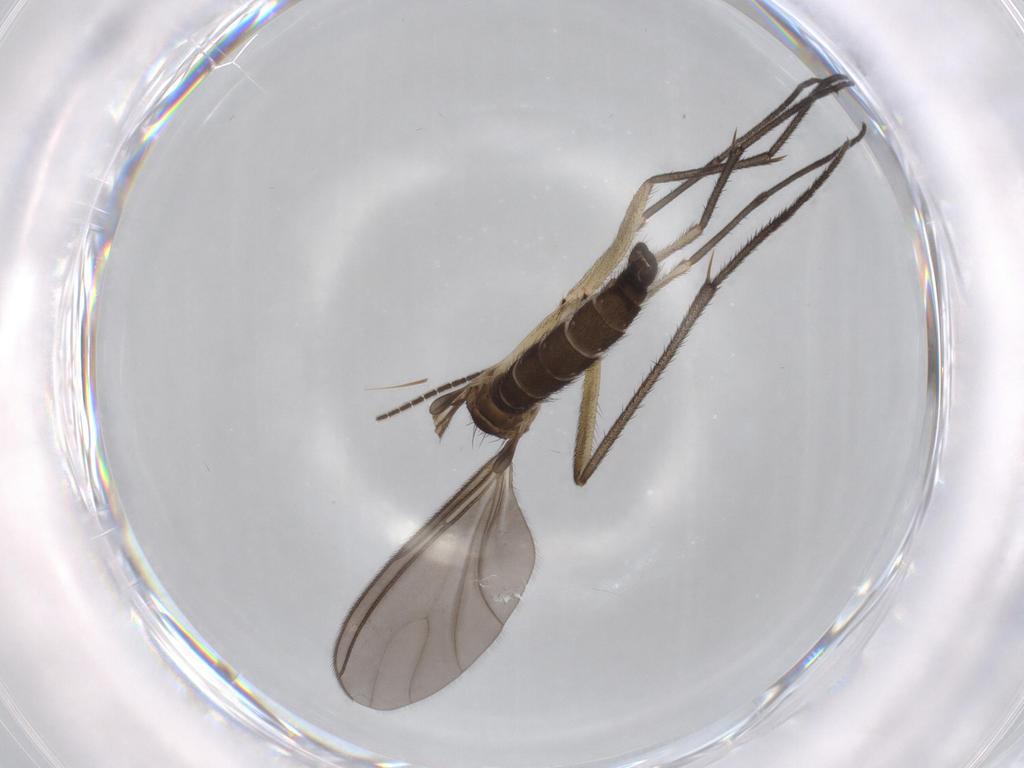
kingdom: Animalia
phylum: Arthropoda
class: Insecta
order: Diptera
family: Sciaridae
